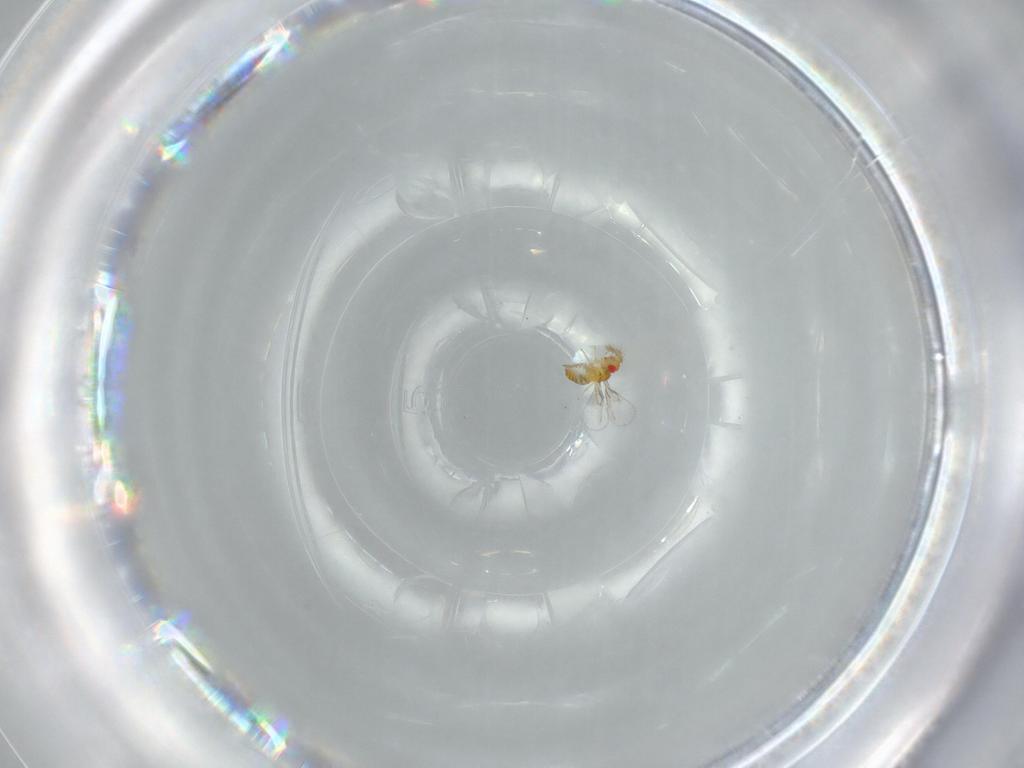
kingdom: Animalia
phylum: Arthropoda
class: Insecta
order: Hymenoptera
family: Trichogrammatidae
